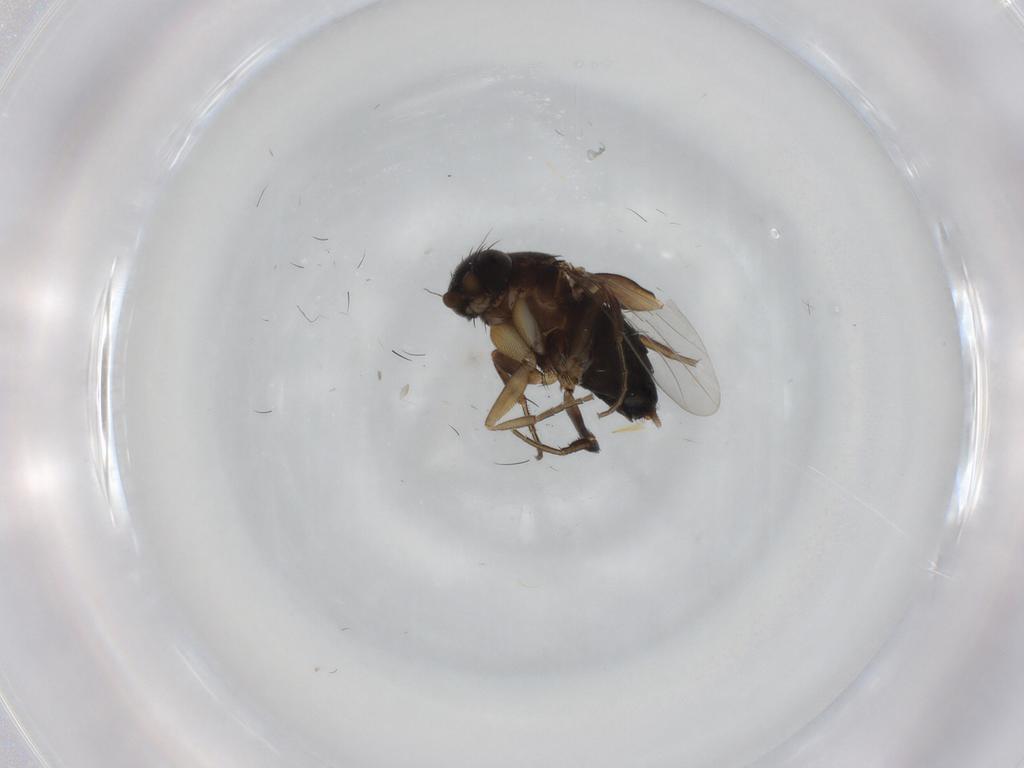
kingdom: Animalia
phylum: Arthropoda
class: Insecta
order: Diptera
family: Phoridae
